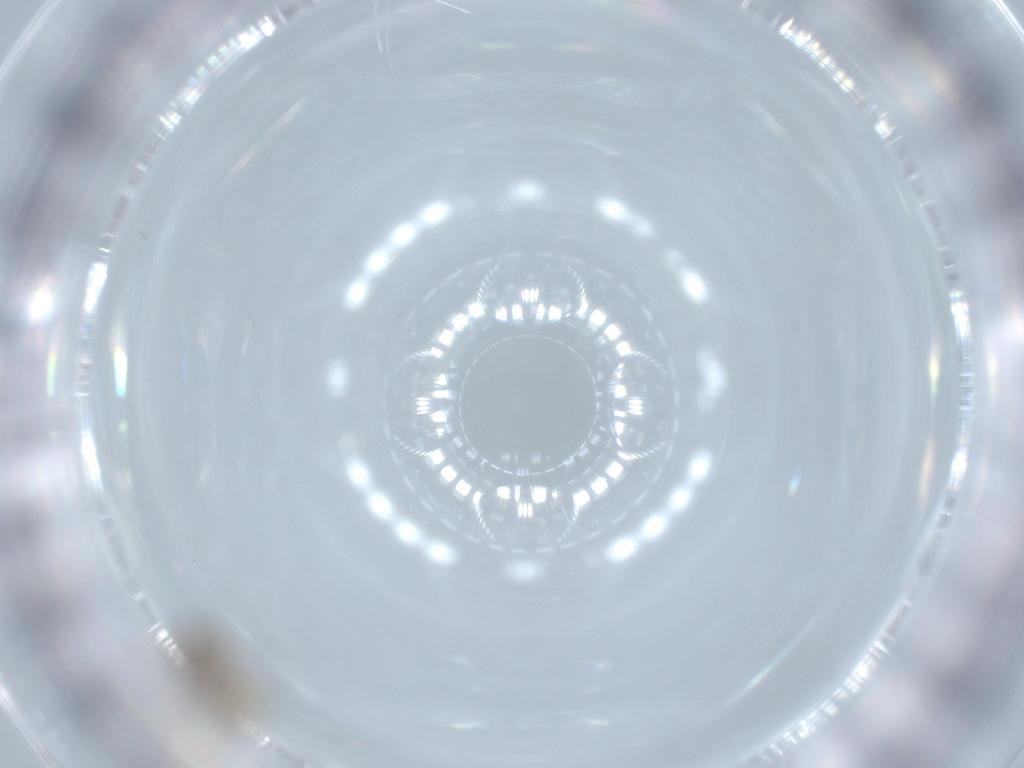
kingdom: Animalia
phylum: Arthropoda
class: Insecta
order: Diptera
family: Cecidomyiidae
